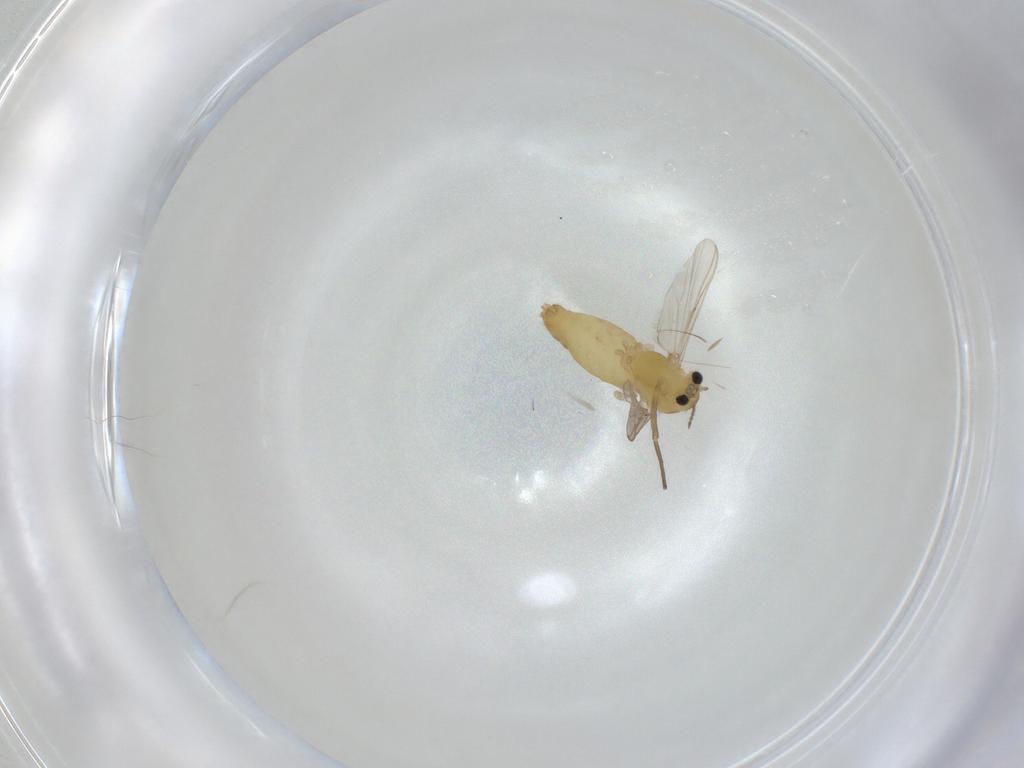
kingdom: Animalia
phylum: Arthropoda
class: Insecta
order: Diptera
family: Chironomidae
